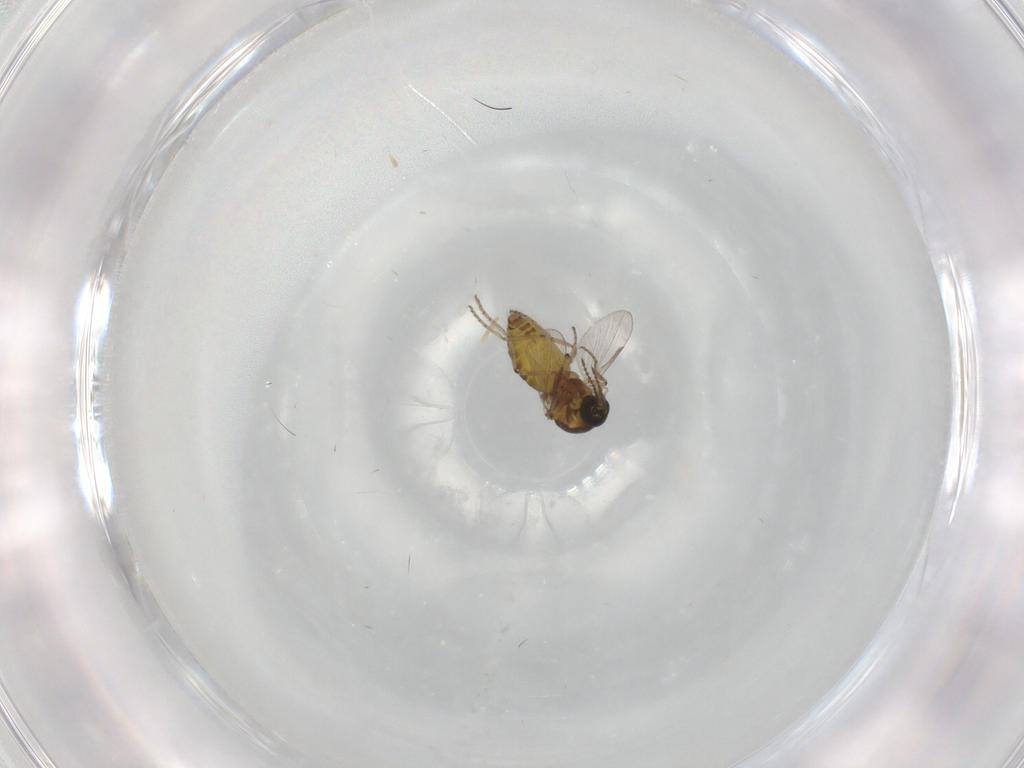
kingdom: Animalia
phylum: Arthropoda
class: Insecta
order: Diptera
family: Ceratopogonidae
